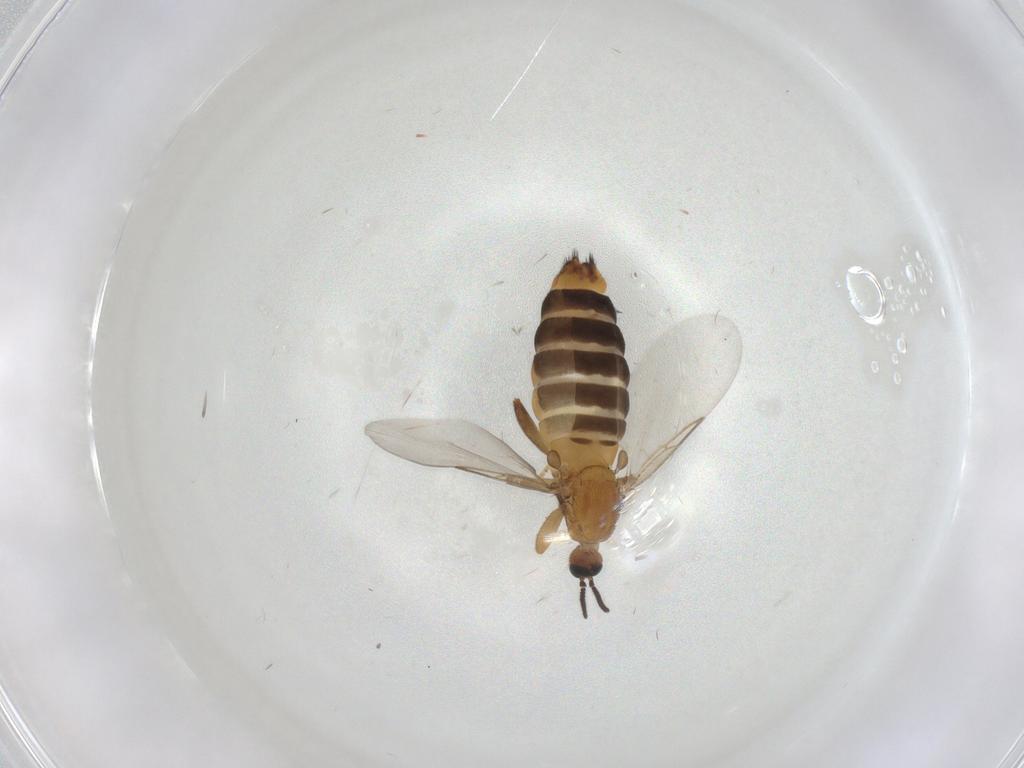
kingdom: Animalia
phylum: Arthropoda
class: Insecta
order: Diptera
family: Scatopsidae
